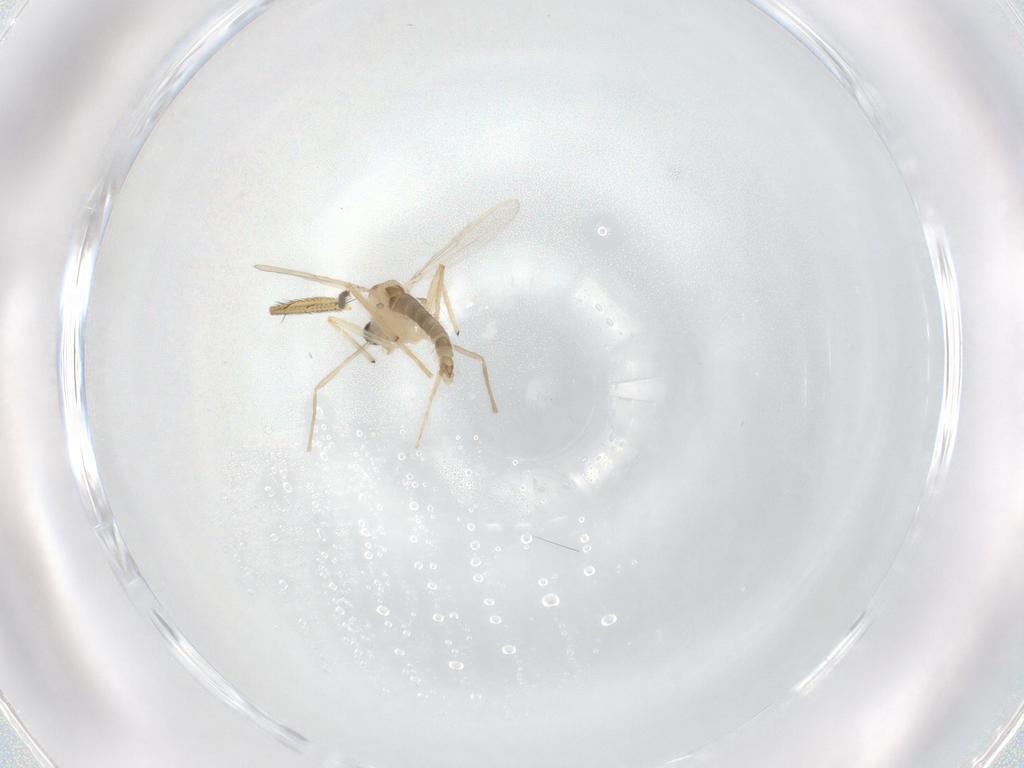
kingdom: Animalia
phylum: Arthropoda
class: Insecta
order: Diptera
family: Chironomidae
